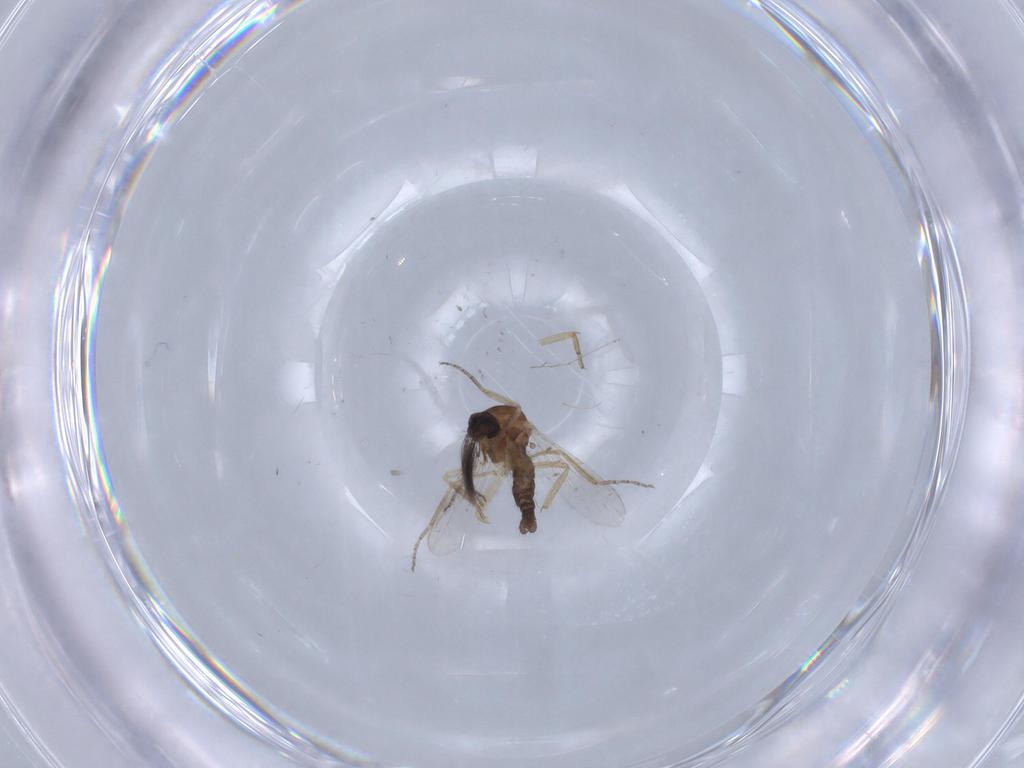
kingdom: Animalia
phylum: Arthropoda
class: Insecta
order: Diptera
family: Ceratopogonidae
